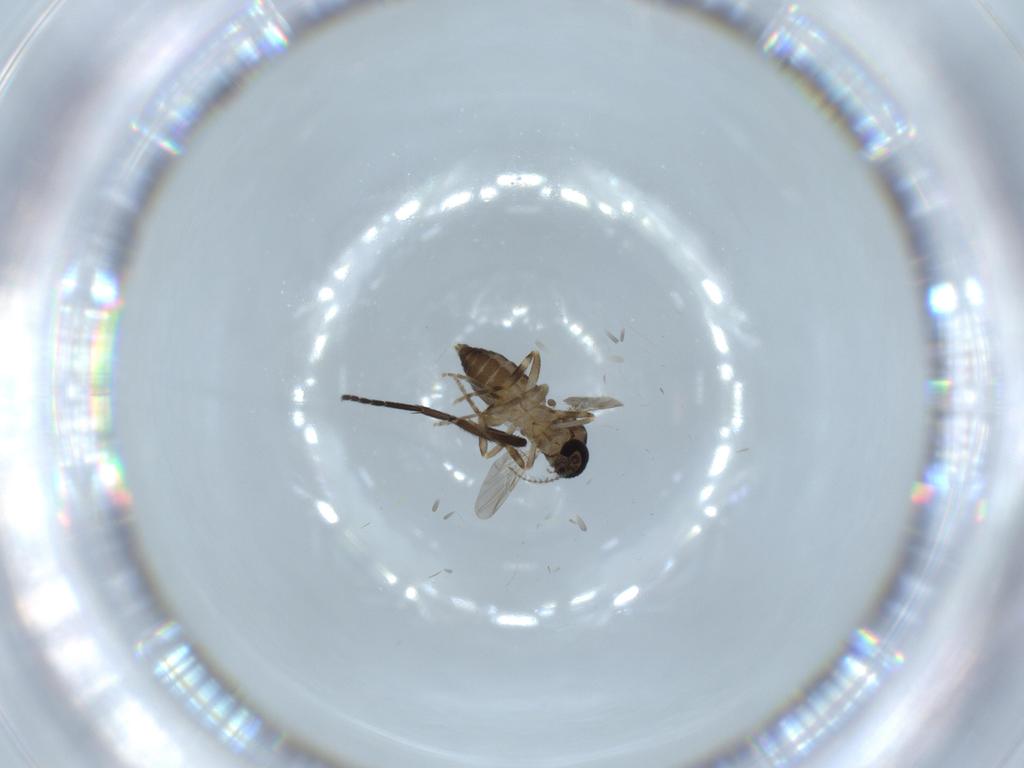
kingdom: Animalia
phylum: Arthropoda
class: Insecta
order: Diptera
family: Ceratopogonidae
